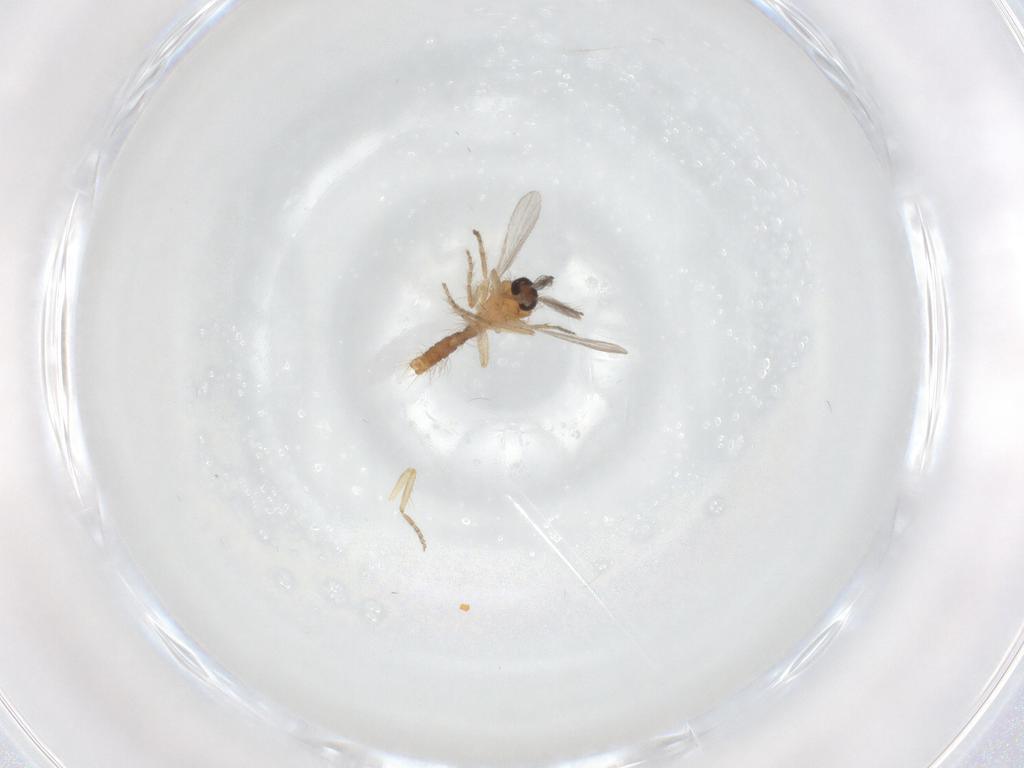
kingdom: Animalia
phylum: Arthropoda
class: Insecta
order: Diptera
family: Ceratopogonidae
